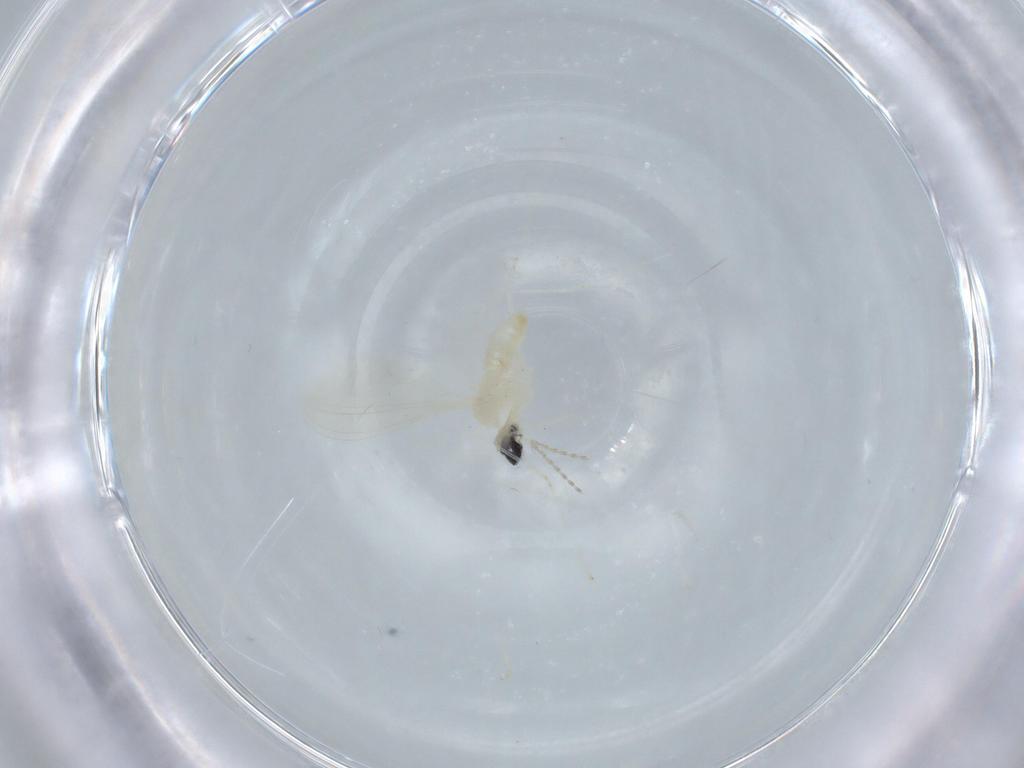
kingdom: Animalia
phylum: Arthropoda
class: Insecta
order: Diptera
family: Cecidomyiidae
